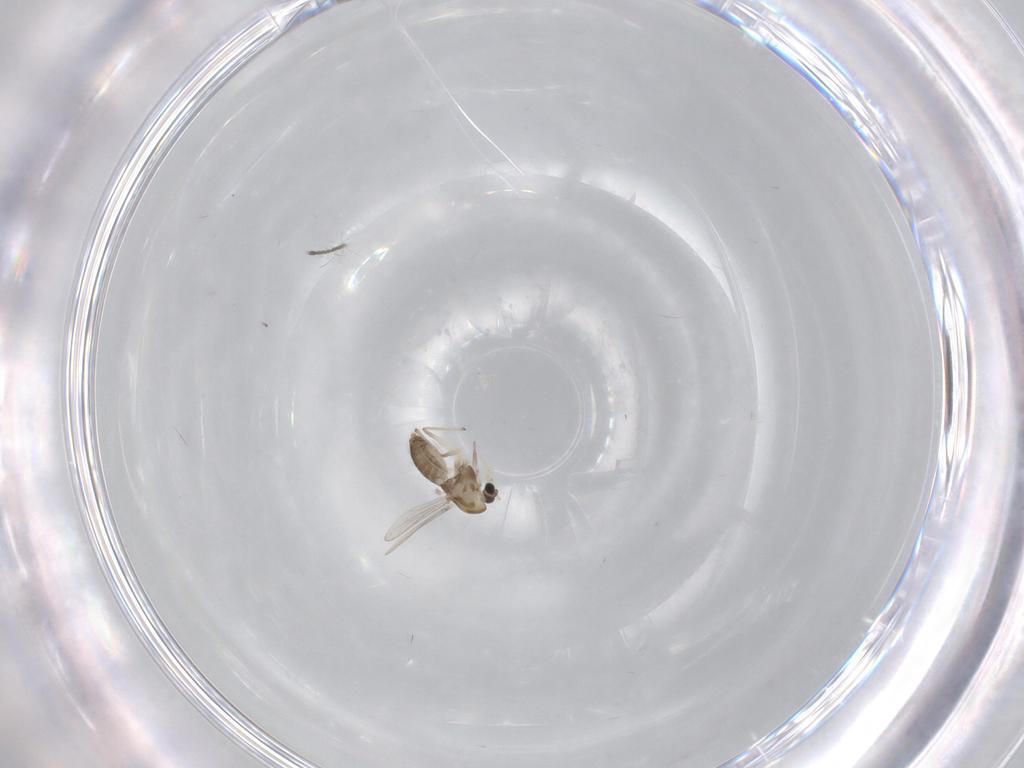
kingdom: Animalia
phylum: Arthropoda
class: Insecta
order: Diptera
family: Chironomidae
